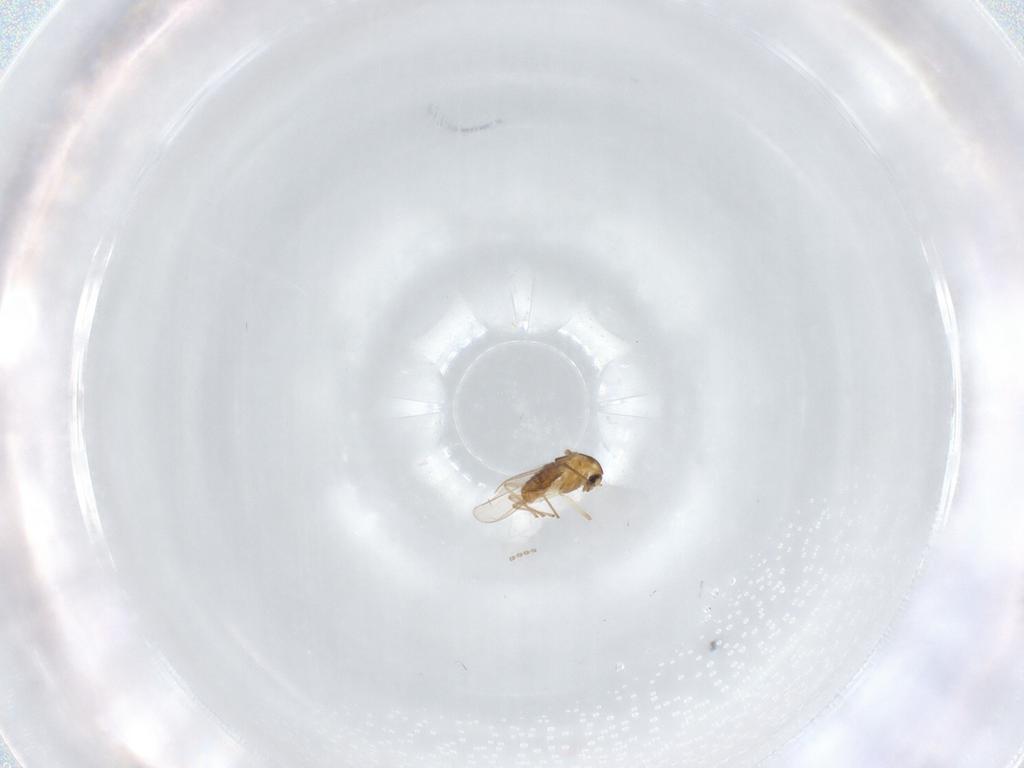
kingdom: Animalia
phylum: Arthropoda
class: Insecta
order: Diptera
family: Chironomidae
